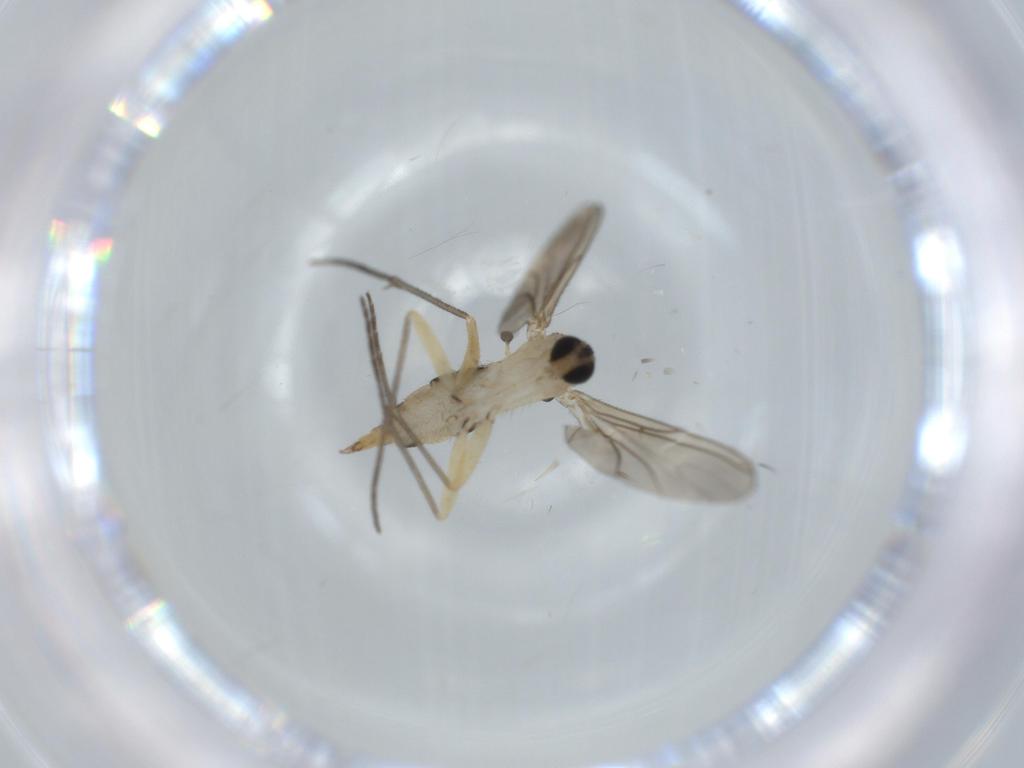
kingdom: Animalia
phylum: Arthropoda
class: Insecta
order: Diptera
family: Sciaridae
